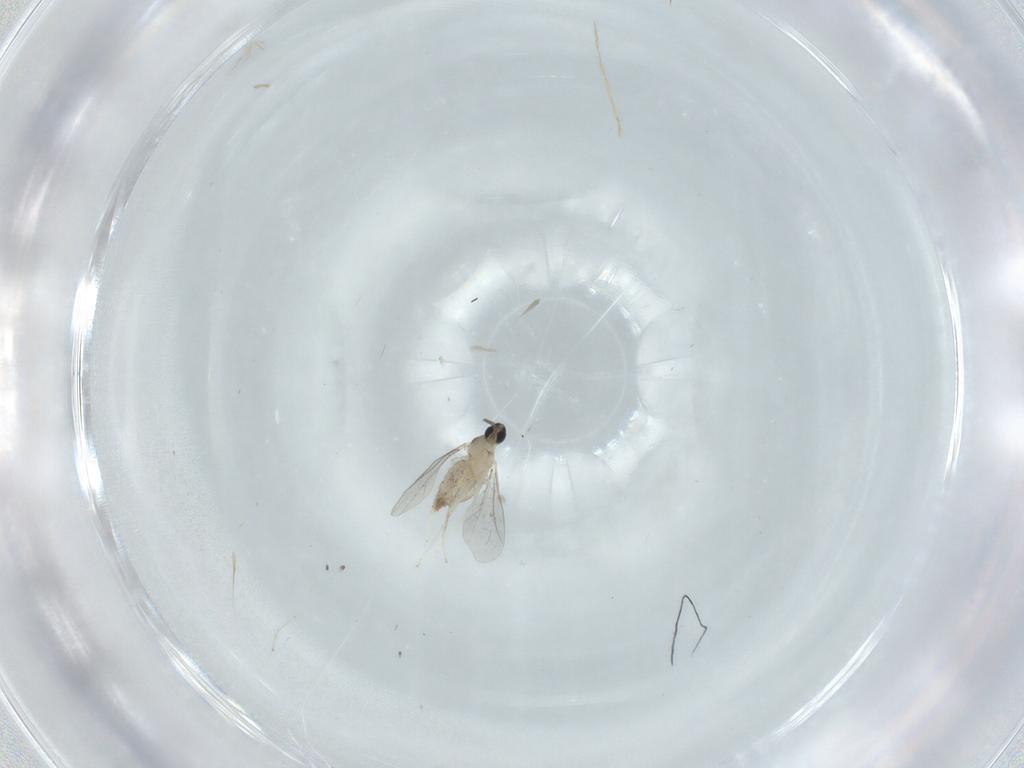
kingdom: Animalia
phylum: Arthropoda
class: Insecta
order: Diptera
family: Cecidomyiidae
